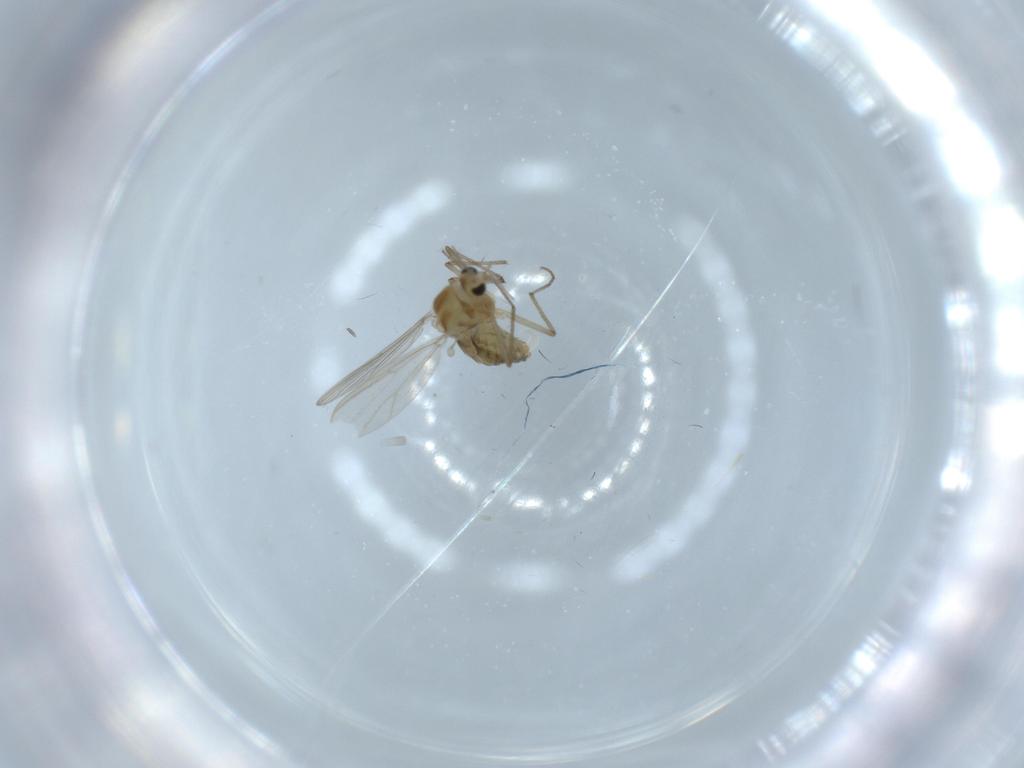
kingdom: Animalia
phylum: Arthropoda
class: Insecta
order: Diptera
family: Chironomidae
